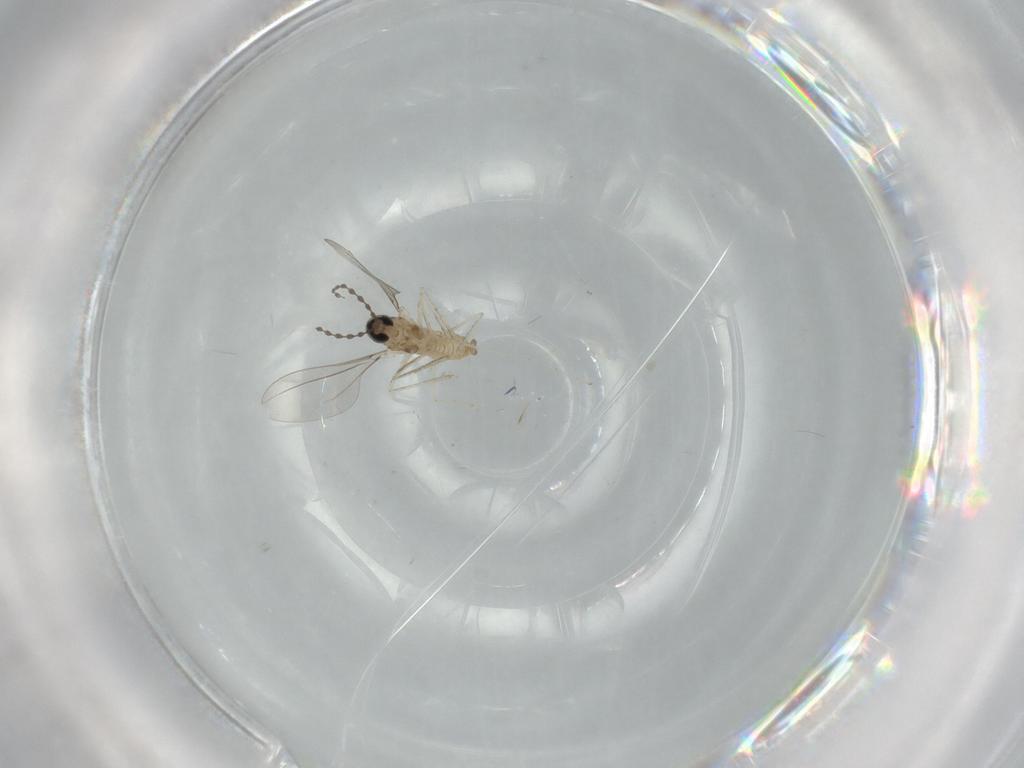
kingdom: Animalia
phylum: Arthropoda
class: Insecta
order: Diptera
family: Cecidomyiidae
